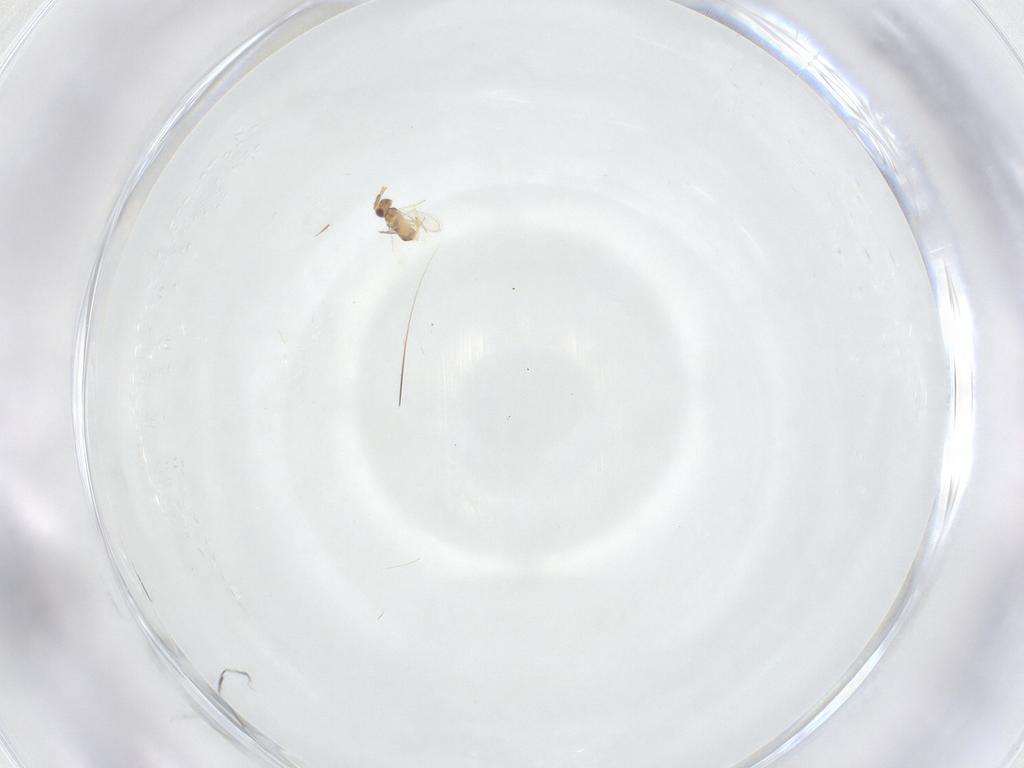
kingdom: Animalia
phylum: Arthropoda
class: Insecta
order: Hymenoptera
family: Aphelinidae
